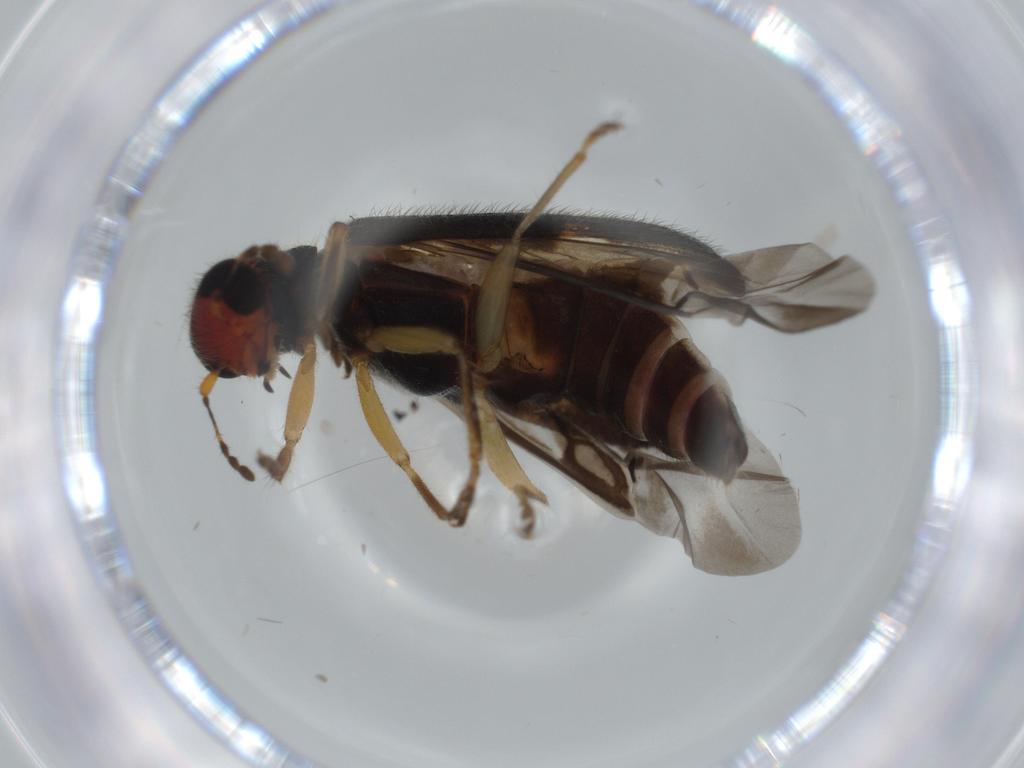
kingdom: Animalia
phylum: Arthropoda
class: Insecta
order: Coleoptera
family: Cleridae
